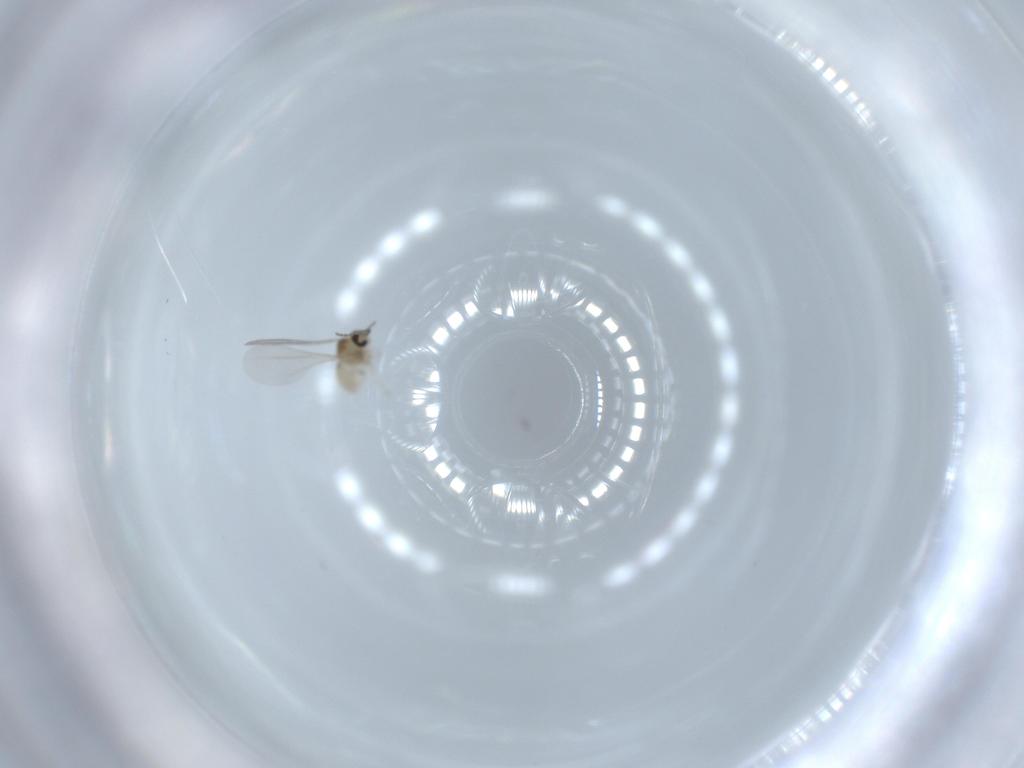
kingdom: Animalia
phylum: Arthropoda
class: Insecta
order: Diptera
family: Cecidomyiidae
